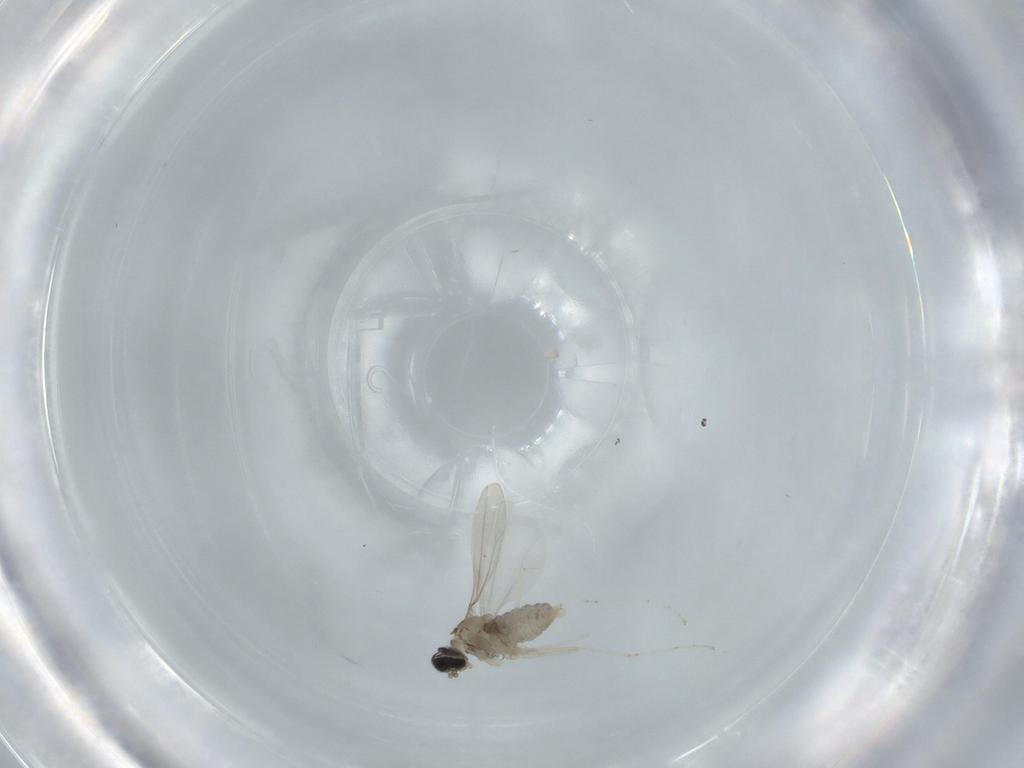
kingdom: Animalia
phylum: Arthropoda
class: Insecta
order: Diptera
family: Cecidomyiidae
